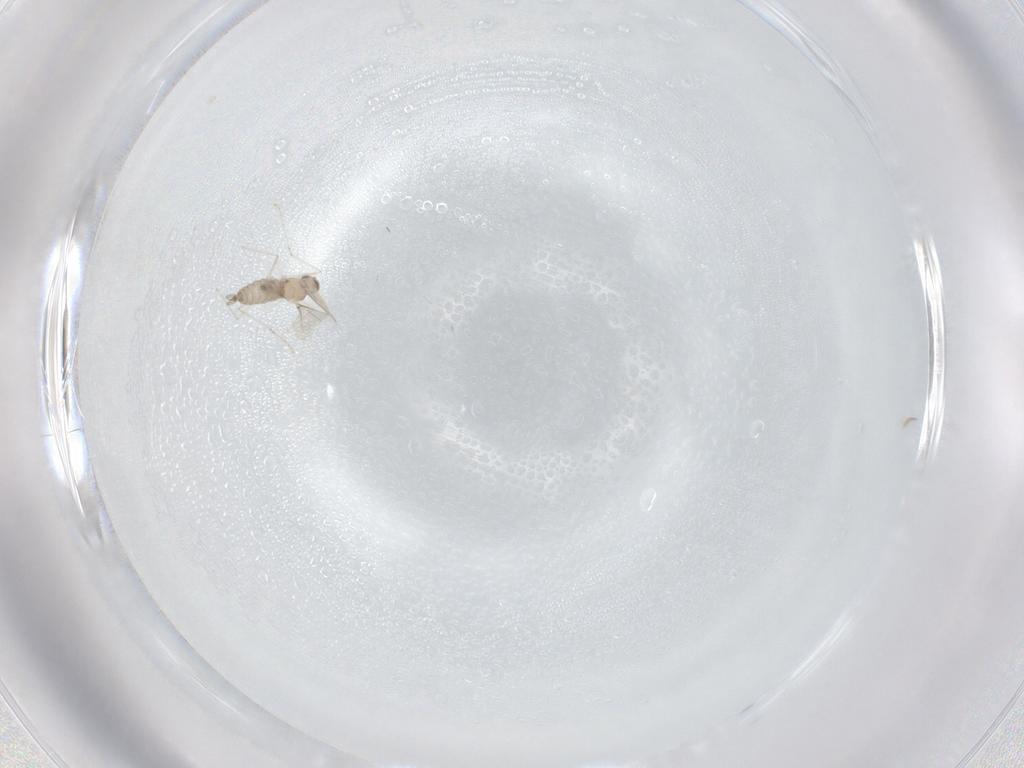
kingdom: Animalia
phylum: Arthropoda
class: Insecta
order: Diptera
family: Cecidomyiidae
